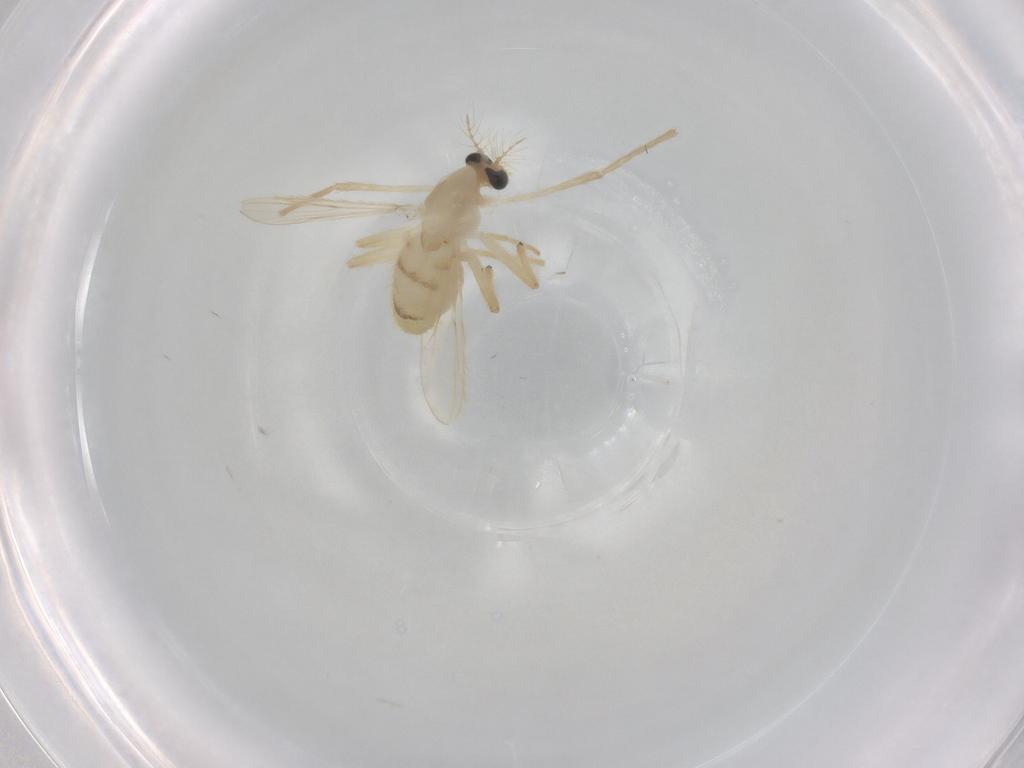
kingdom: Animalia
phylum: Arthropoda
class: Insecta
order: Diptera
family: Chironomidae
